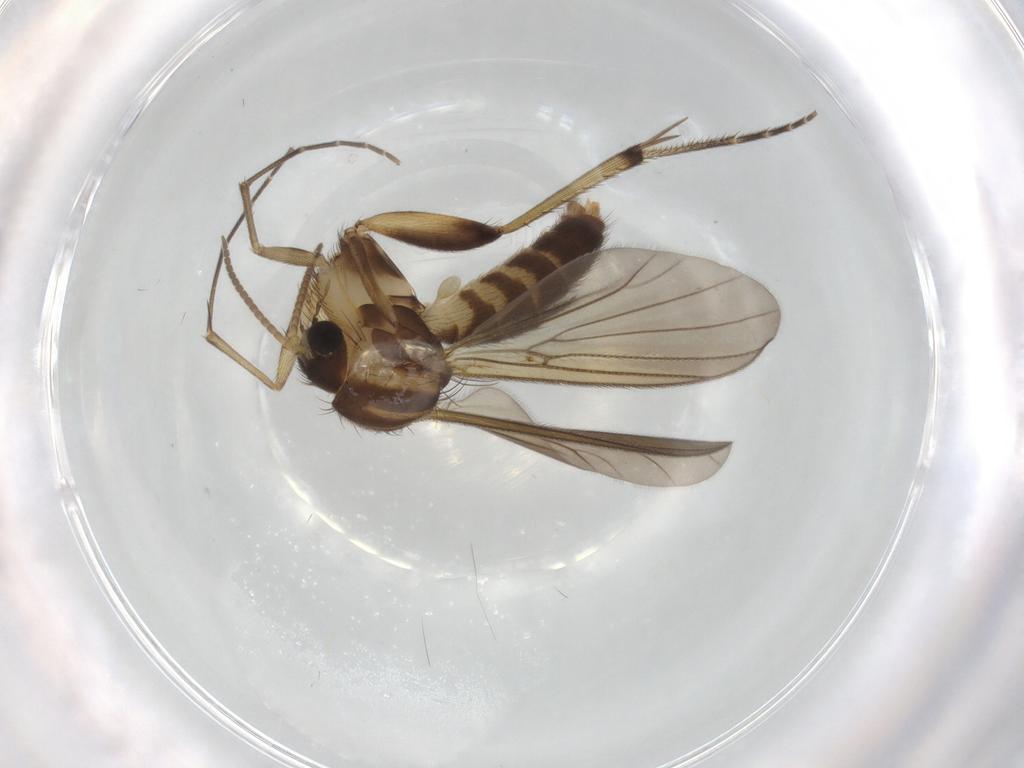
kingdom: Animalia
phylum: Arthropoda
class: Insecta
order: Diptera
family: Mycetophilidae
